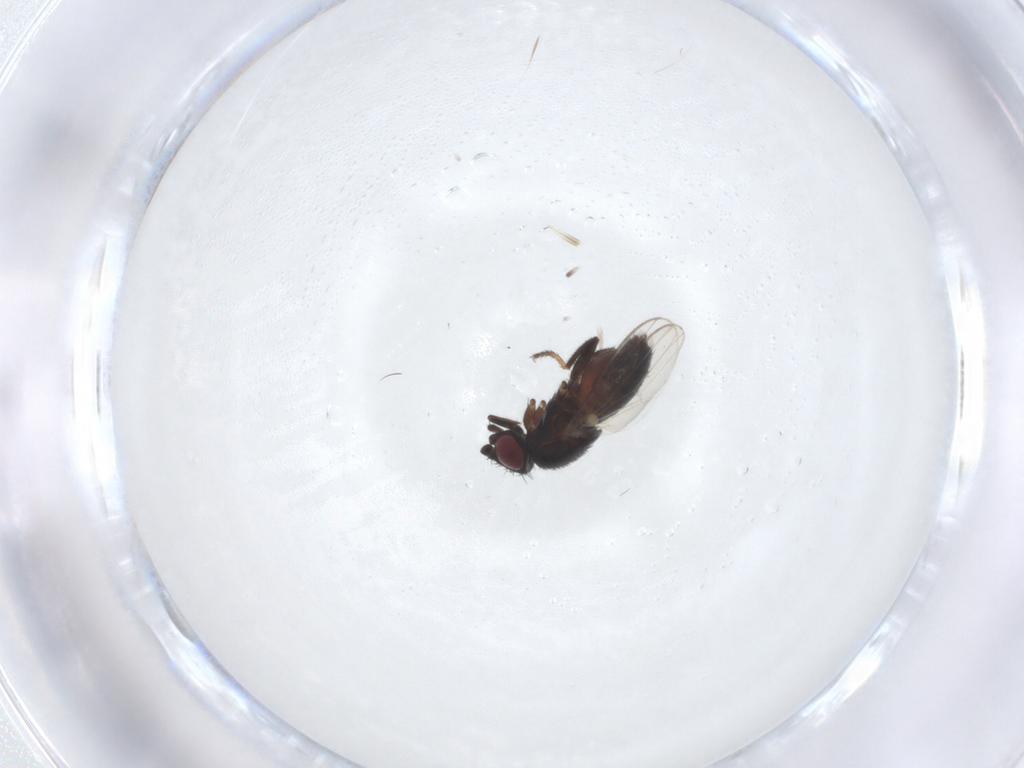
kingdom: Animalia
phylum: Arthropoda
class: Insecta
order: Diptera
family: Milichiidae
